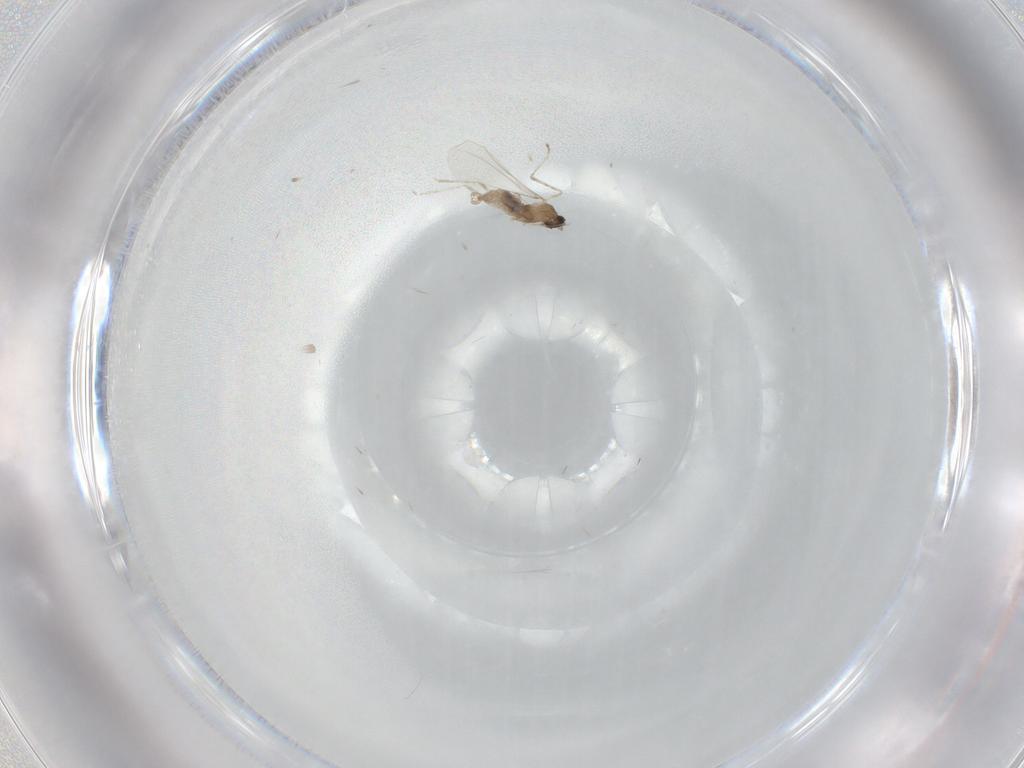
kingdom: Animalia
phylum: Arthropoda
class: Insecta
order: Diptera
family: Cecidomyiidae
